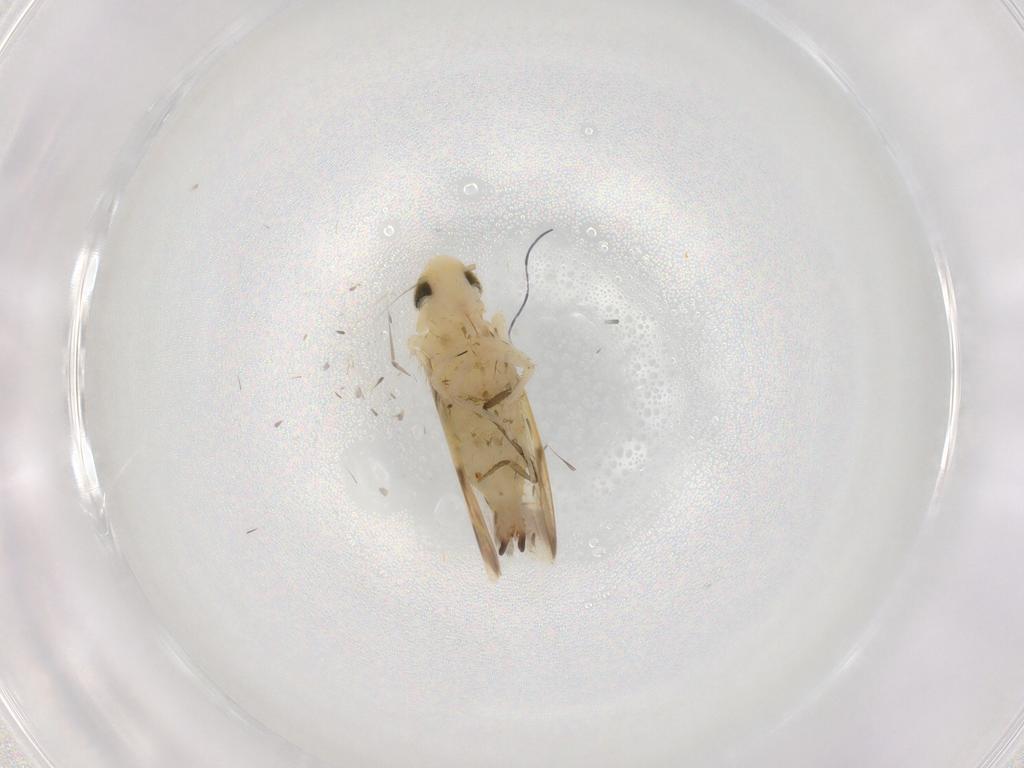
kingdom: Animalia
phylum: Arthropoda
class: Insecta
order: Hemiptera
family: Cicadellidae
